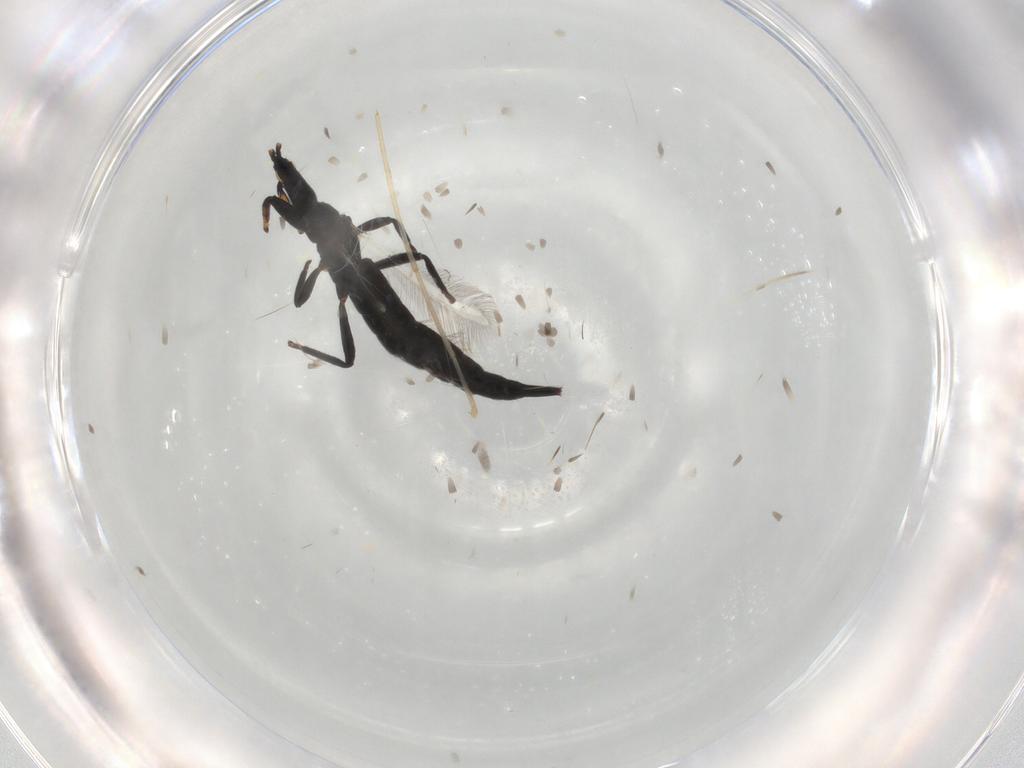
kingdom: Animalia
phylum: Arthropoda
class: Insecta
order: Thysanoptera
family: Phlaeothripidae
